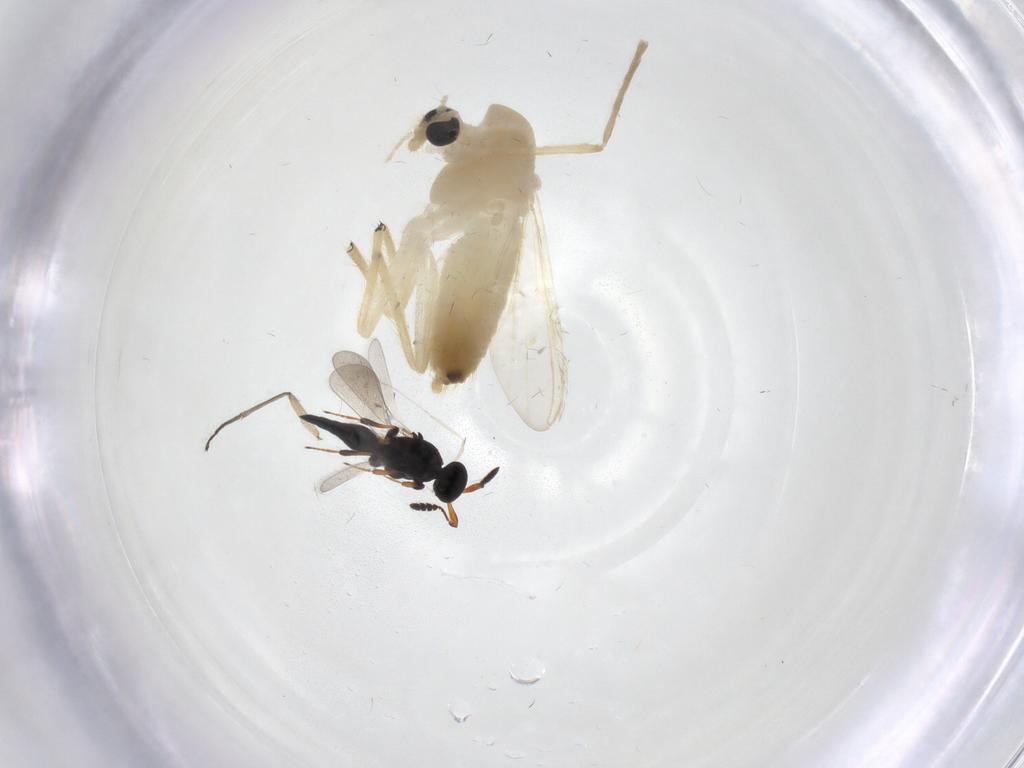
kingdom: Animalia
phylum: Arthropoda
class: Insecta
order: Diptera
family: Chironomidae
